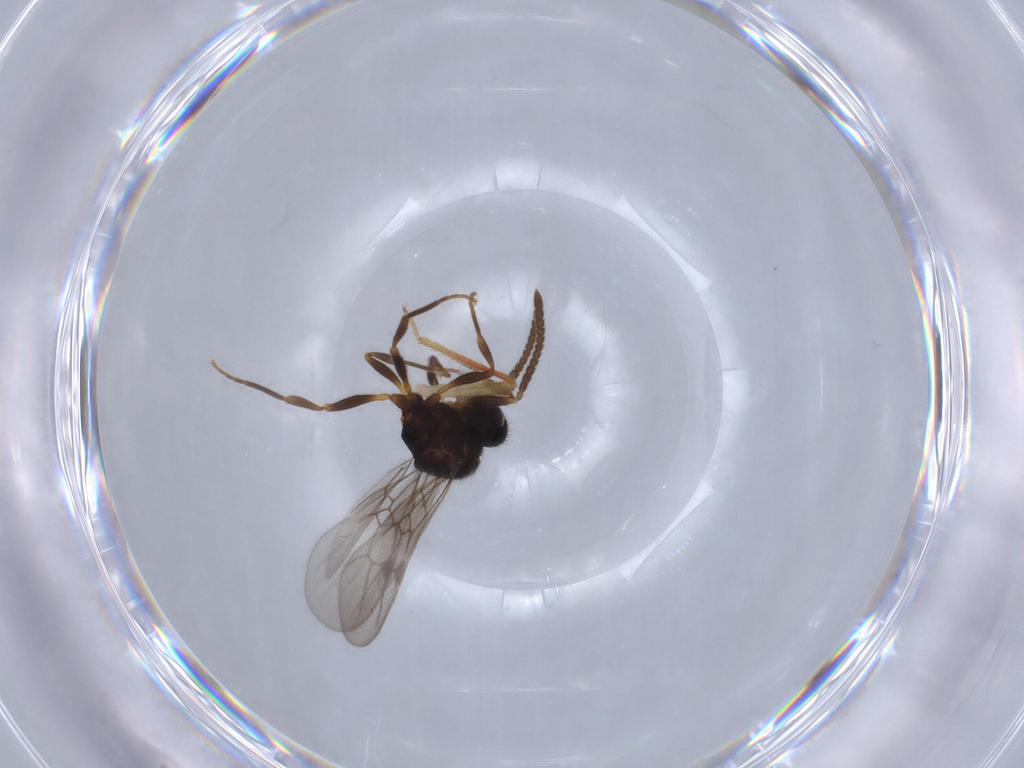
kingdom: Animalia
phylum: Arthropoda
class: Insecta
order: Hymenoptera
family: Formicidae
